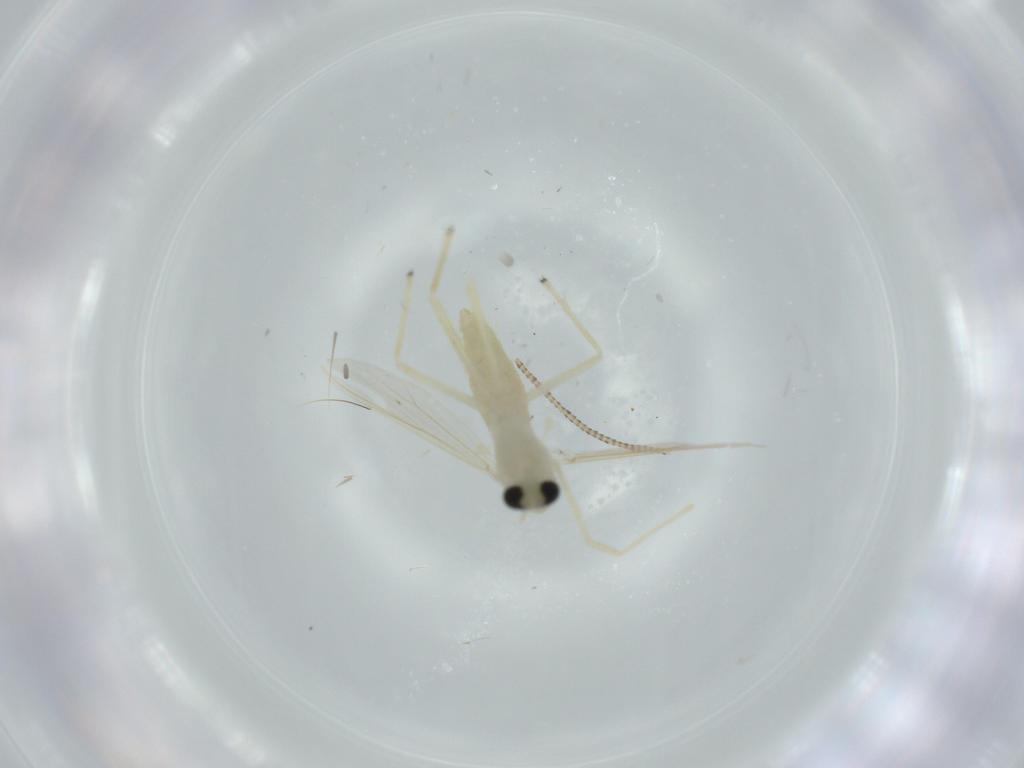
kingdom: Animalia
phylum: Arthropoda
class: Insecta
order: Diptera
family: Chironomidae
